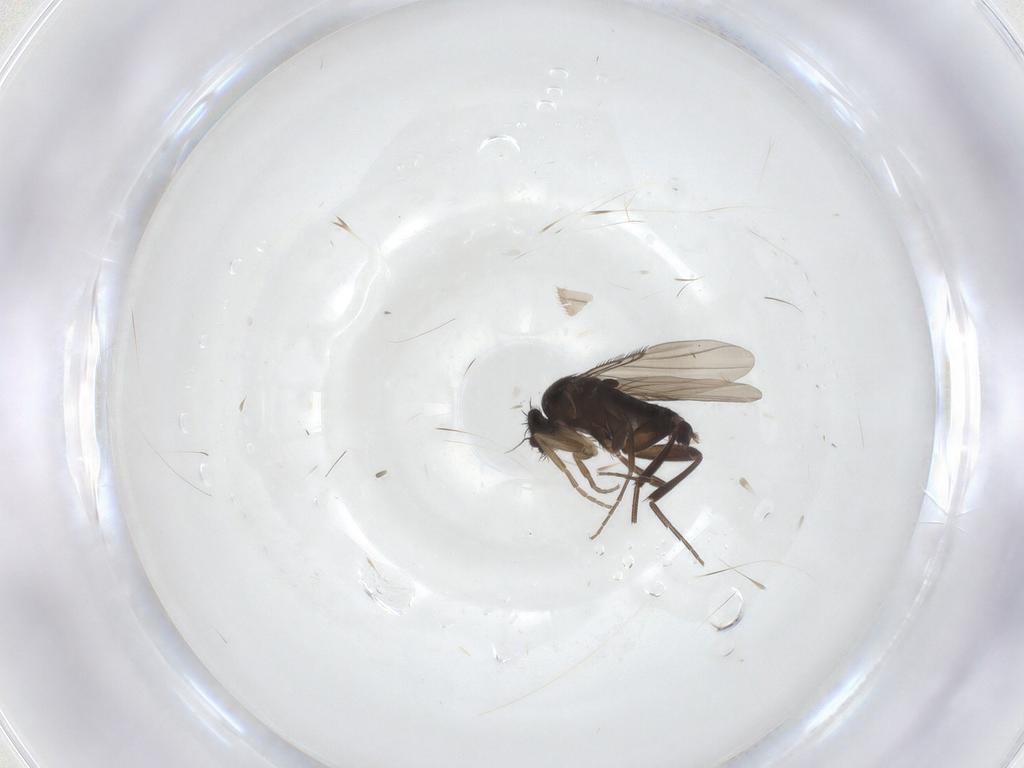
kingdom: Animalia
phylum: Arthropoda
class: Insecta
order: Diptera
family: Phoridae
